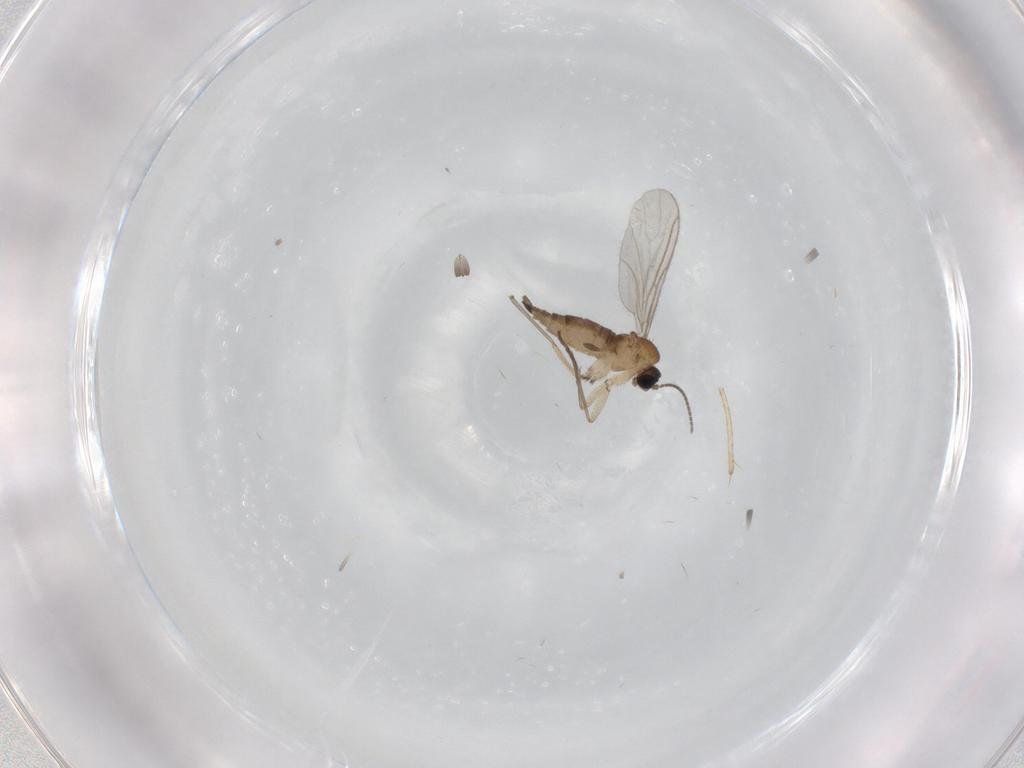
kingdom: Animalia
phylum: Arthropoda
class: Insecta
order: Diptera
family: Sciaridae
